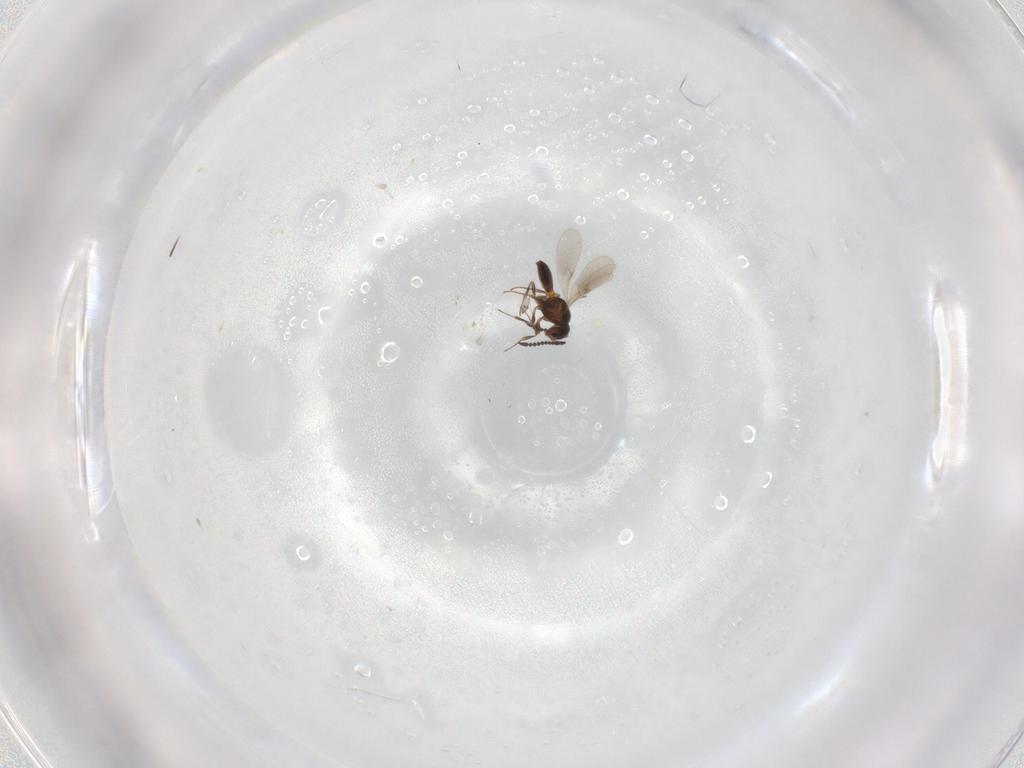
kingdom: Animalia
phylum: Arthropoda
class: Insecta
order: Hymenoptera
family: Scelionidae
